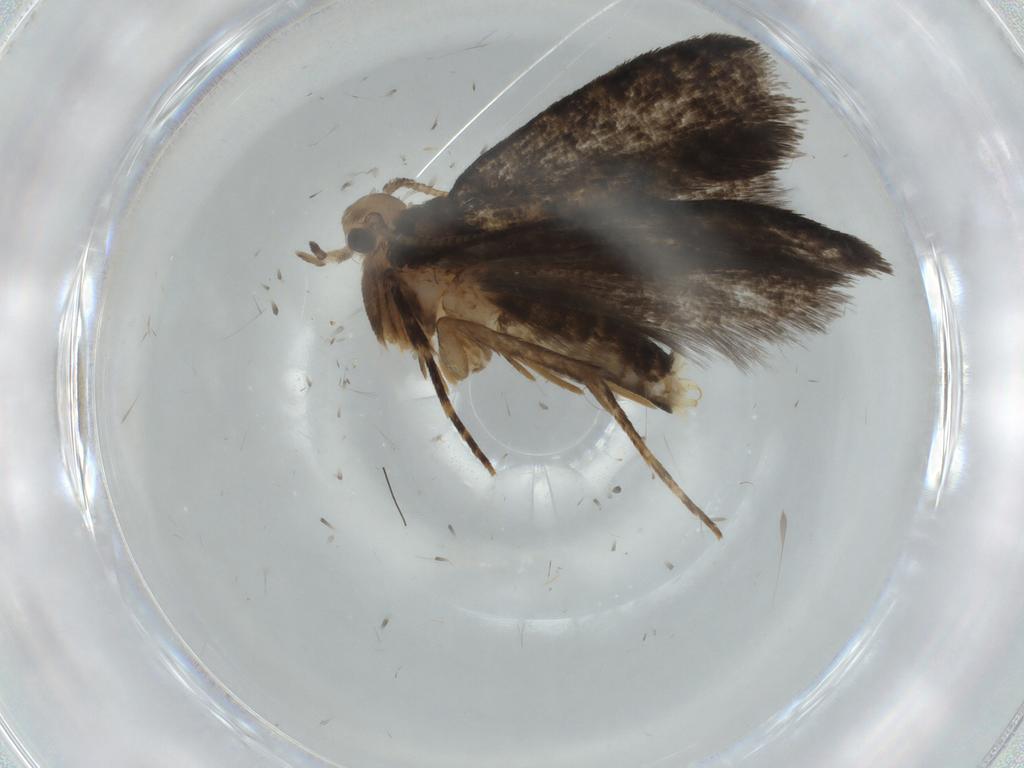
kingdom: Animalia
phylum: Arthropoda
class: Insecta
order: Lepidoptera
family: Tineidae
